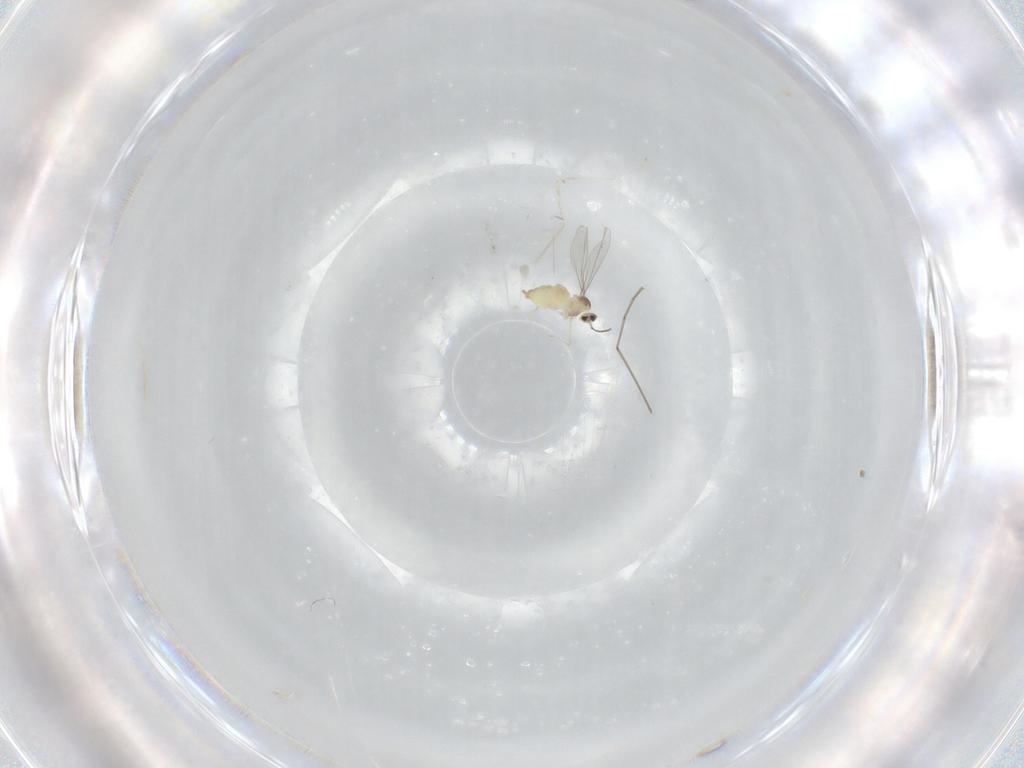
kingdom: Animalia
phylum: Arthropoda
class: Insecta
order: Diptera
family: Cecidomyiidae
